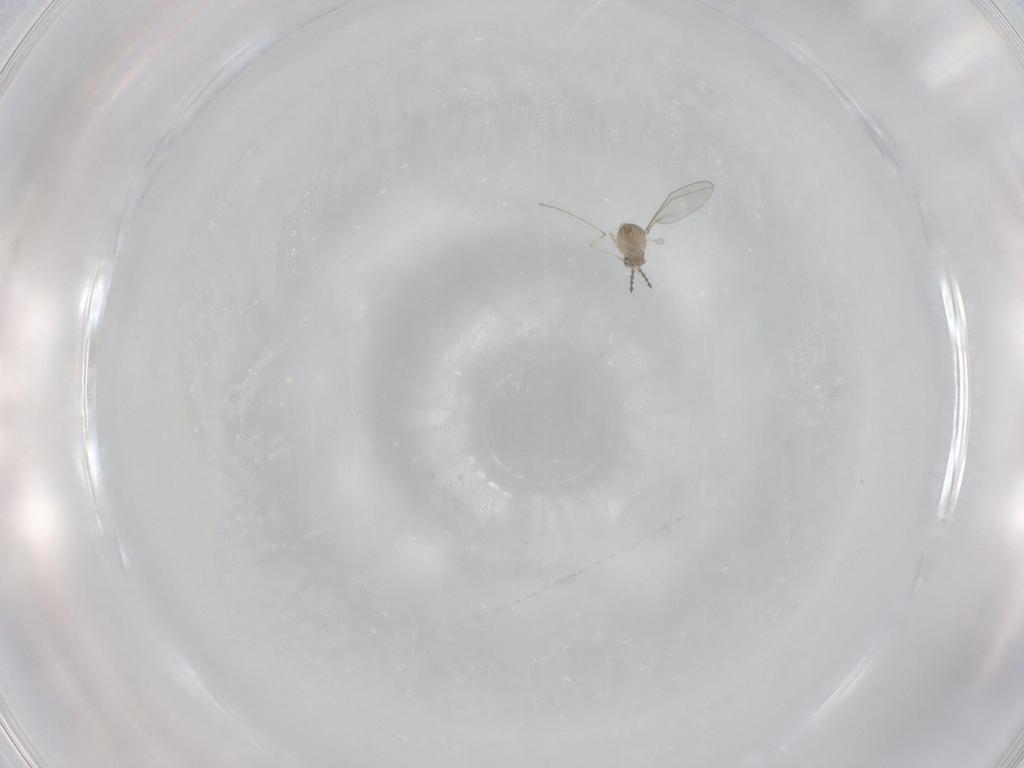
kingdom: Animalia
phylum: Arthropoda
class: Insecta
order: Diptera
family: Cecidomyiidae
